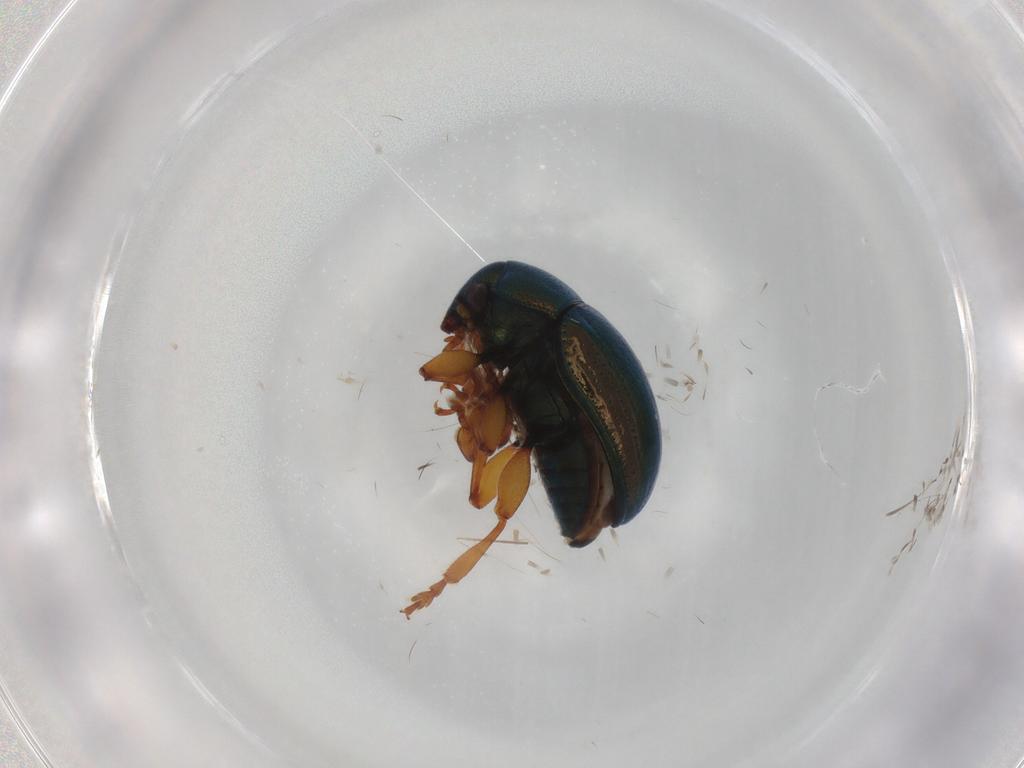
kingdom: Animalia
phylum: Arthropoda
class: Insecta
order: Coleoptera
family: Chrysomelidae
